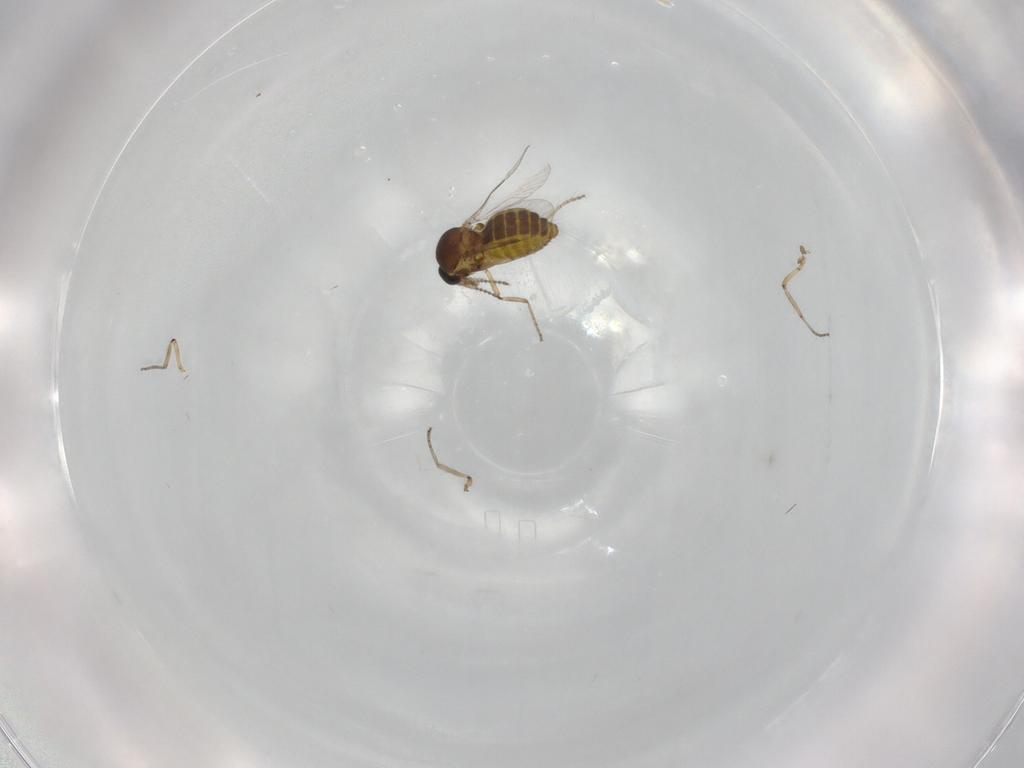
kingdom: Animalia
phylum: Arthropoda
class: Insecta
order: Diptera
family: Ceratopogonidae
